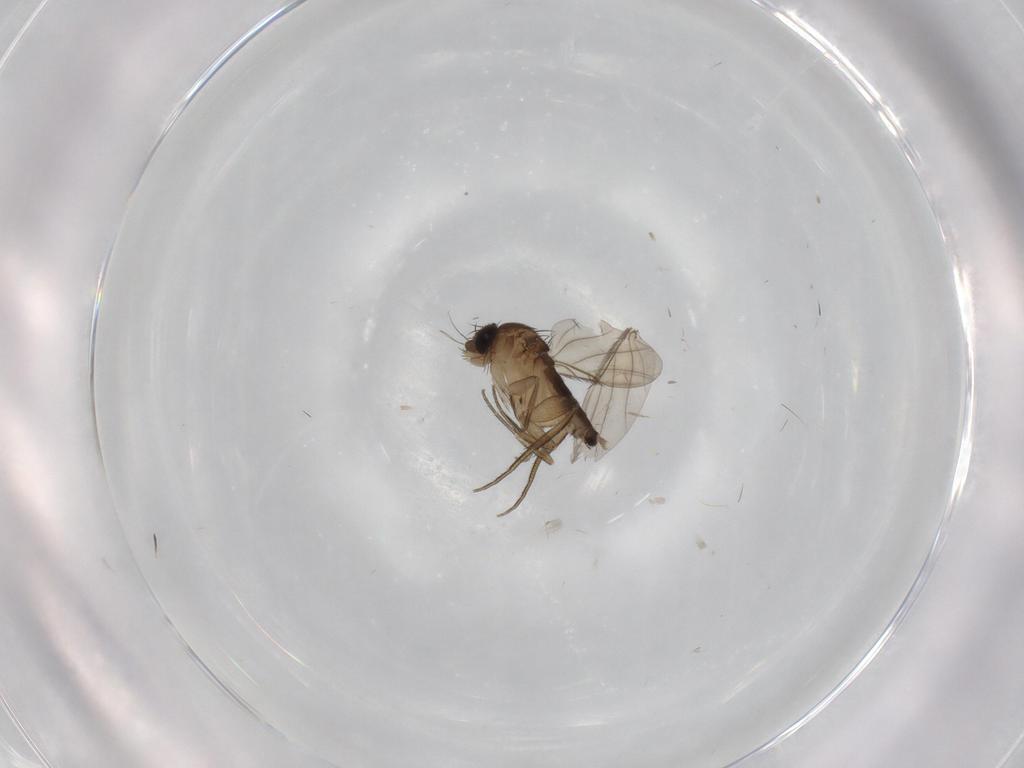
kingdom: Animalia
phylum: Arthropoda
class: Insecta
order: Diptera
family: Phoridae
